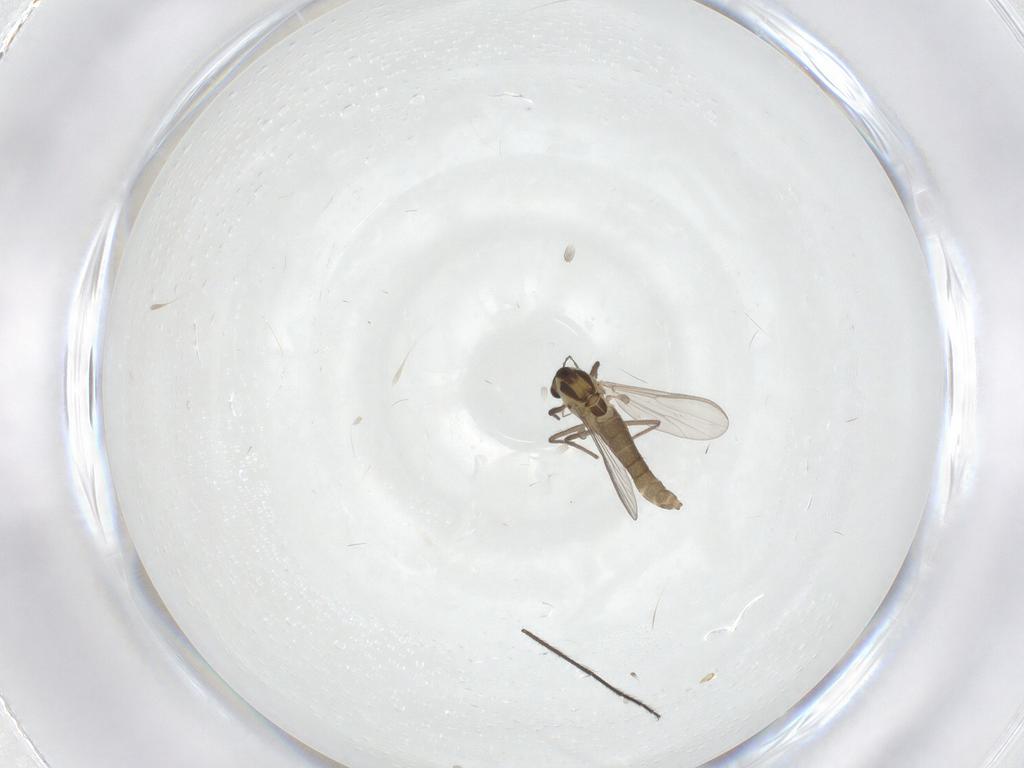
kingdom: Animalia
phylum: Arthropoda
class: Insecta
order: Diptera
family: Chironomidae
